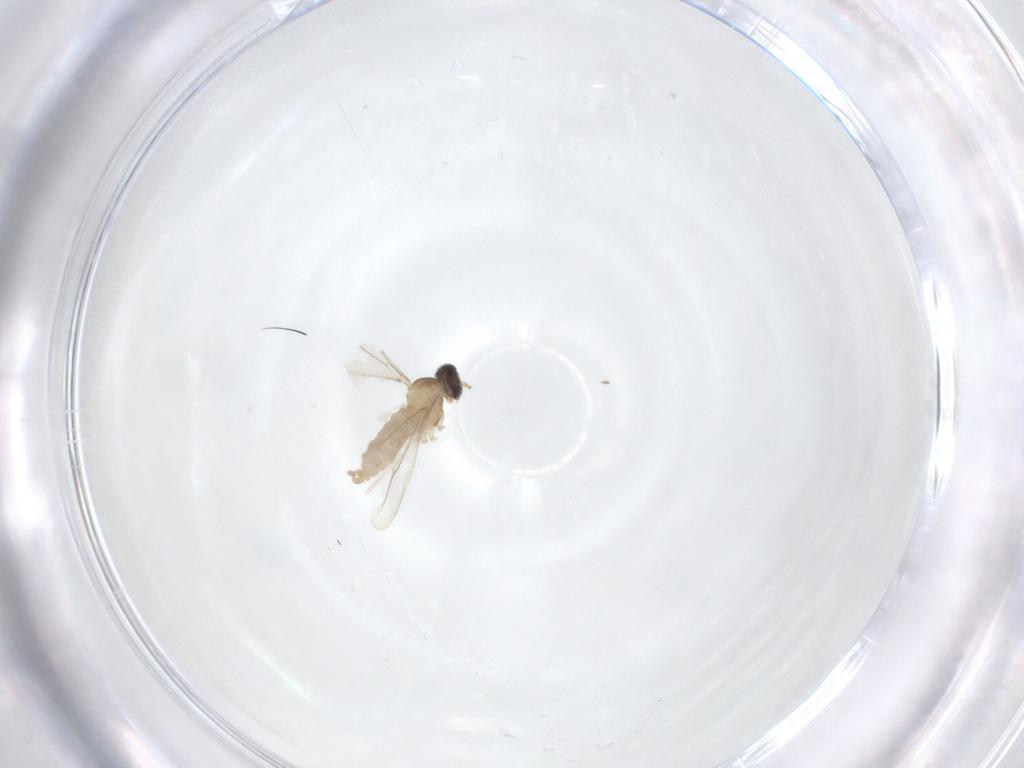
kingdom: Animalia
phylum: Arthropoda
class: Insecta
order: Diptera
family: Cecidomyiidae
